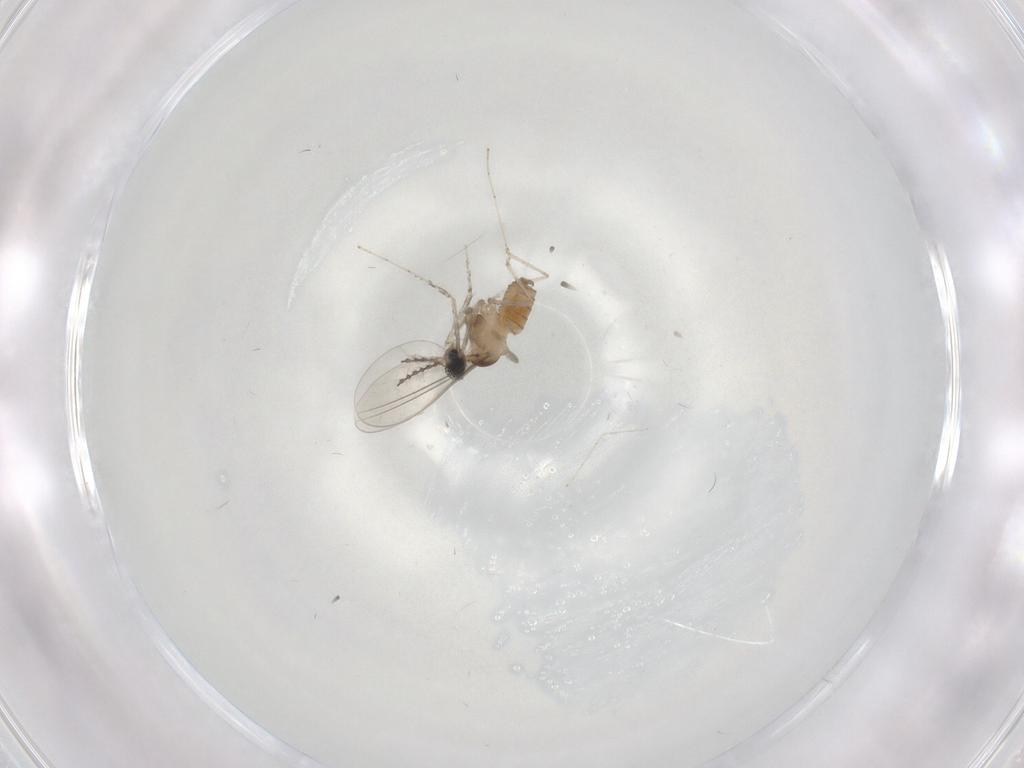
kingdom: Animalia
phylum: Arthropoda
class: Insecta
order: Diptera
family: Cecidomyiidae
